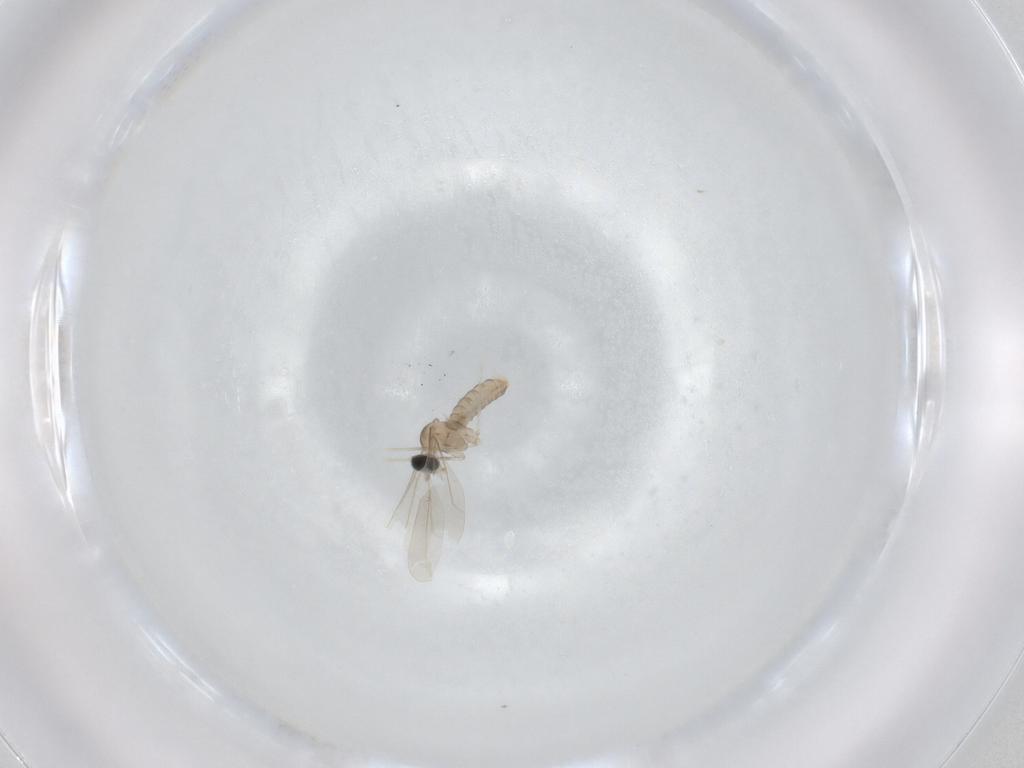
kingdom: Animalia
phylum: Arthropoda
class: Insecta
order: Diptera
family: Cecidomyiidae
